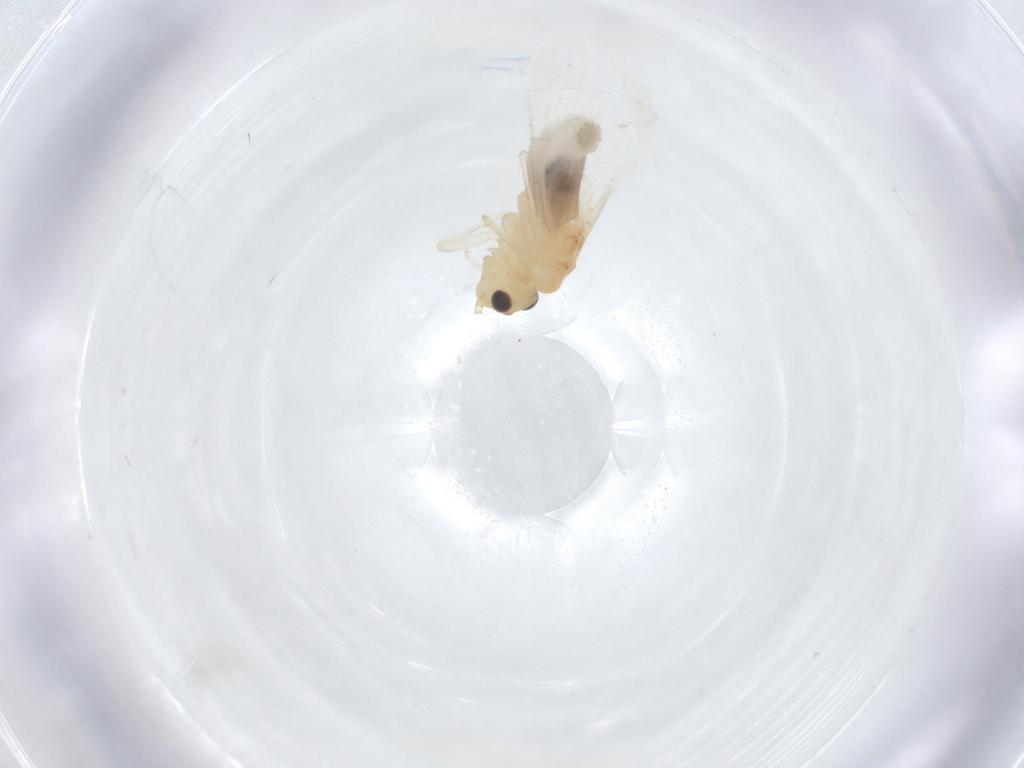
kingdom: Animalia
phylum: Arthropoda
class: Insecta
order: Psocodea
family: Caeciliusidae
